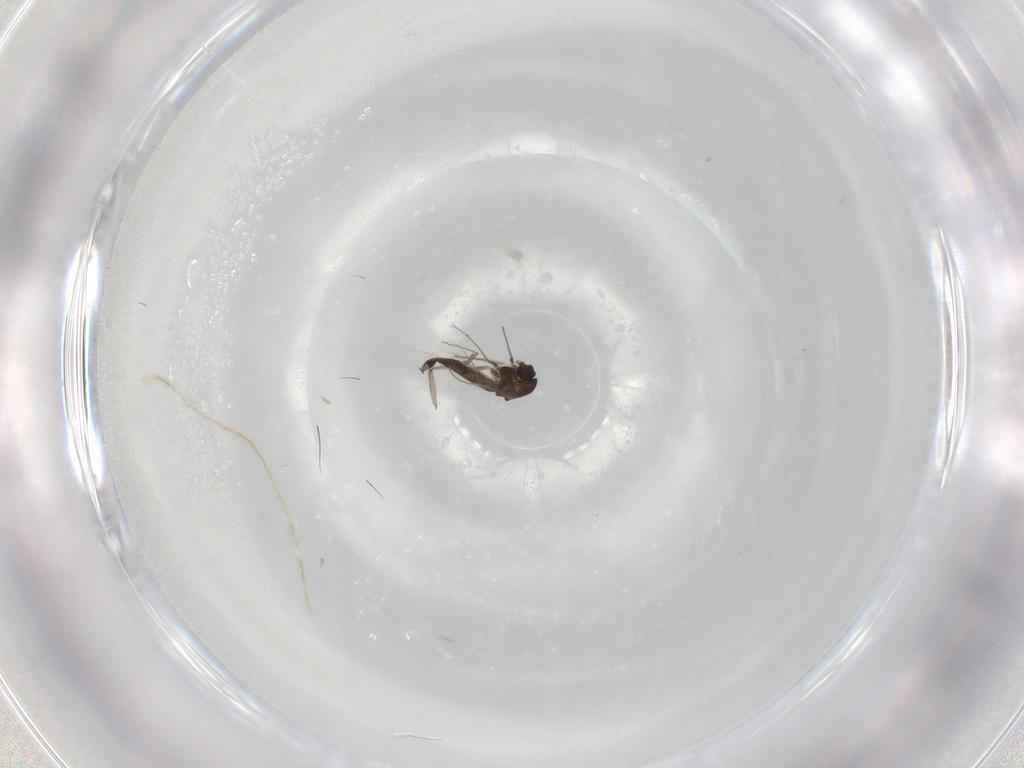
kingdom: Animalia
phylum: Arthropoda
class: Insecta
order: Diptera
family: Chironomidae
